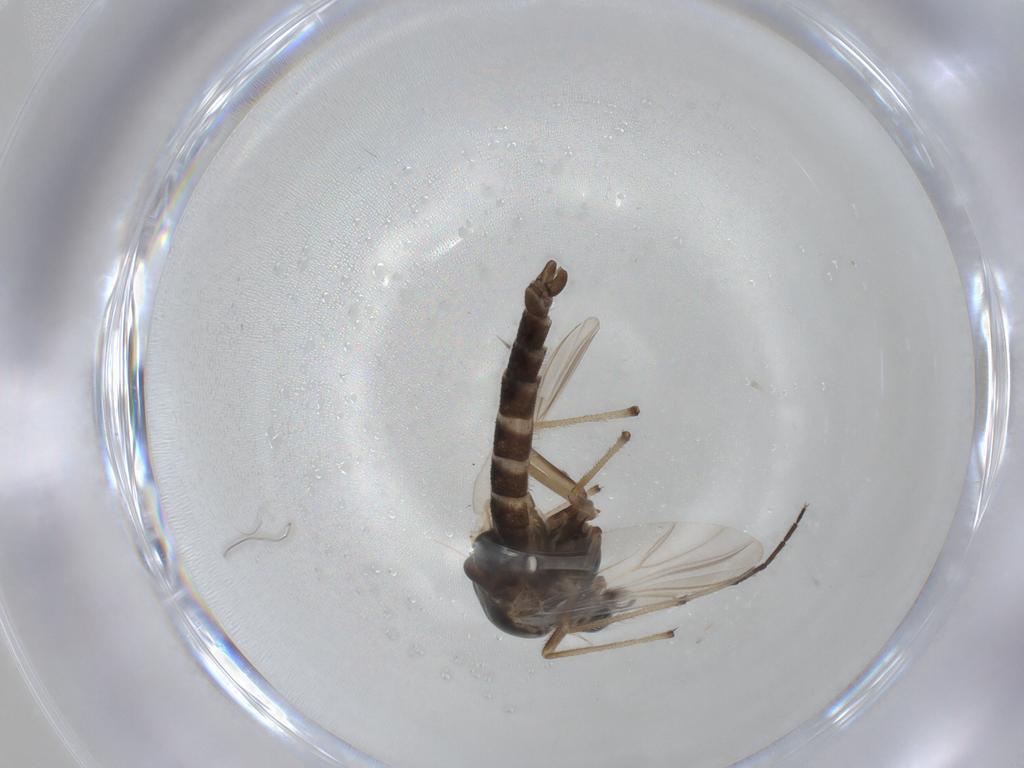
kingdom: Animalia
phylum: Arthropoda
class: Insecta
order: Diptera
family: Chironomidae
